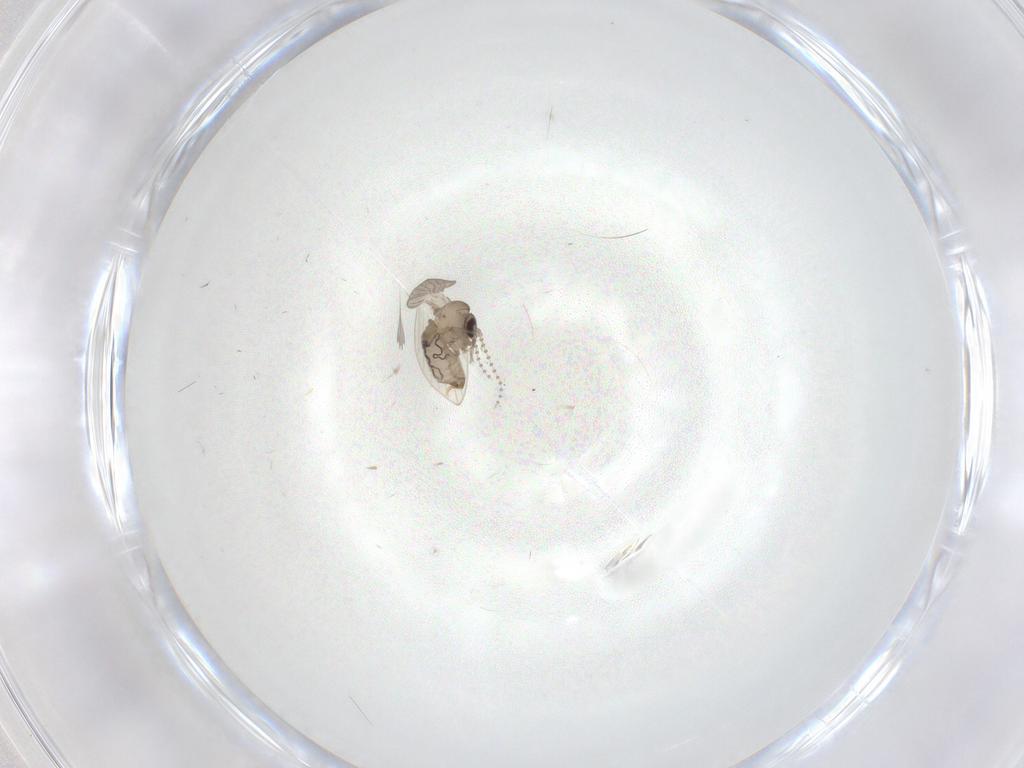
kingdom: Animalia
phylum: Arthropoda
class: Insecta
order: Diptera
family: Psychodidae
